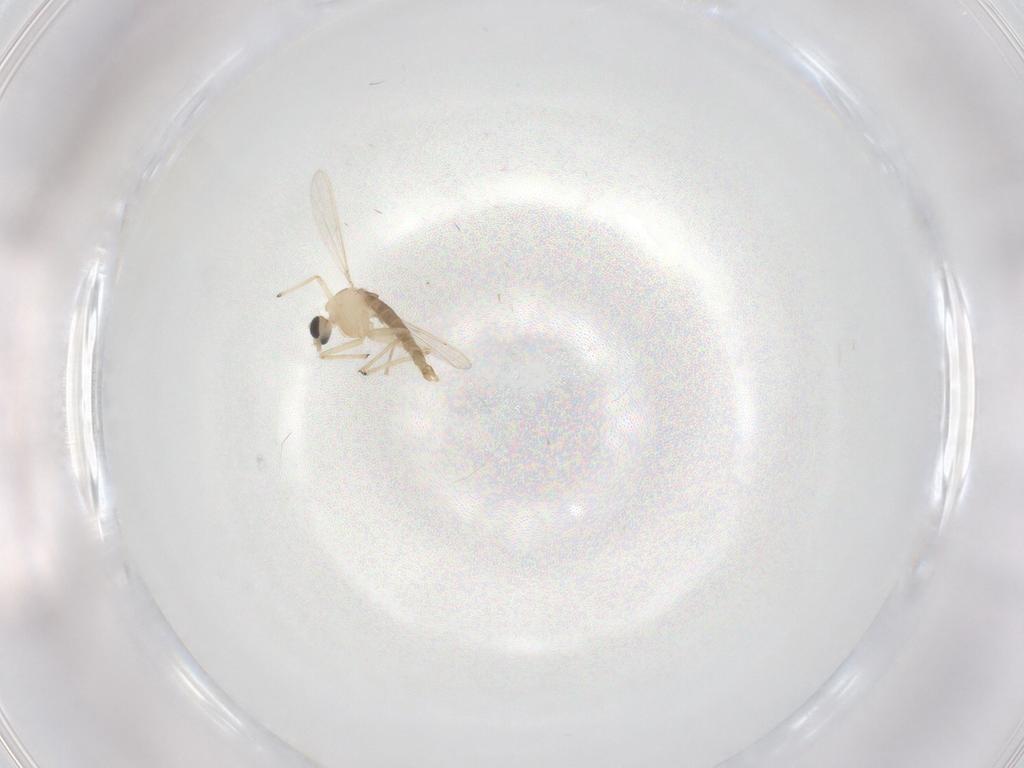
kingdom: Animalia
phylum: Arthropoda
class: Insecta
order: Diptera
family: Chironomidae
